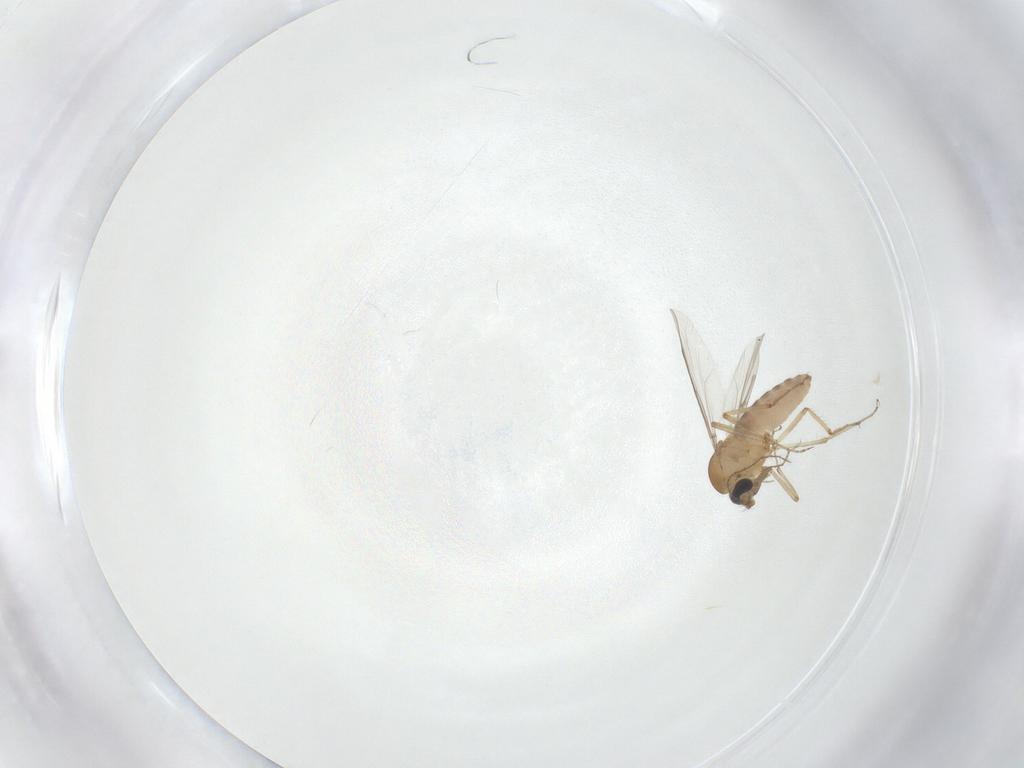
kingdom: Animalia
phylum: Arthropoda
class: Insecta
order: Diptera
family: Ceratopogonidae
